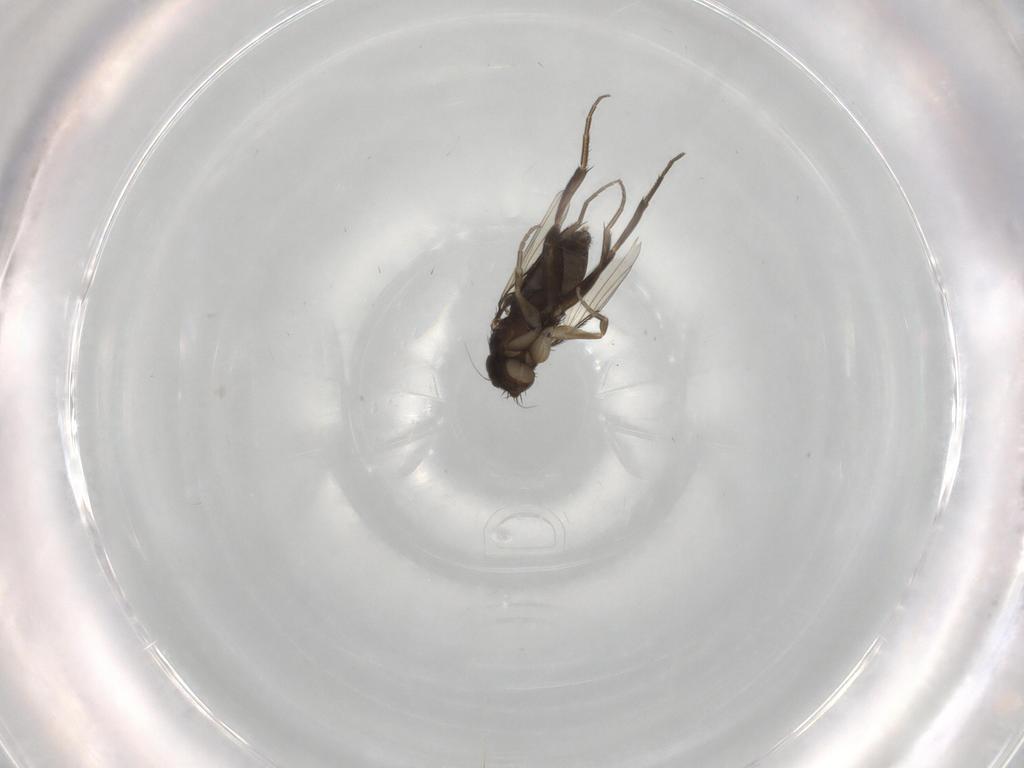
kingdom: Animalia
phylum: Arthropoda
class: Insecta
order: Diptera
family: Phoridae
